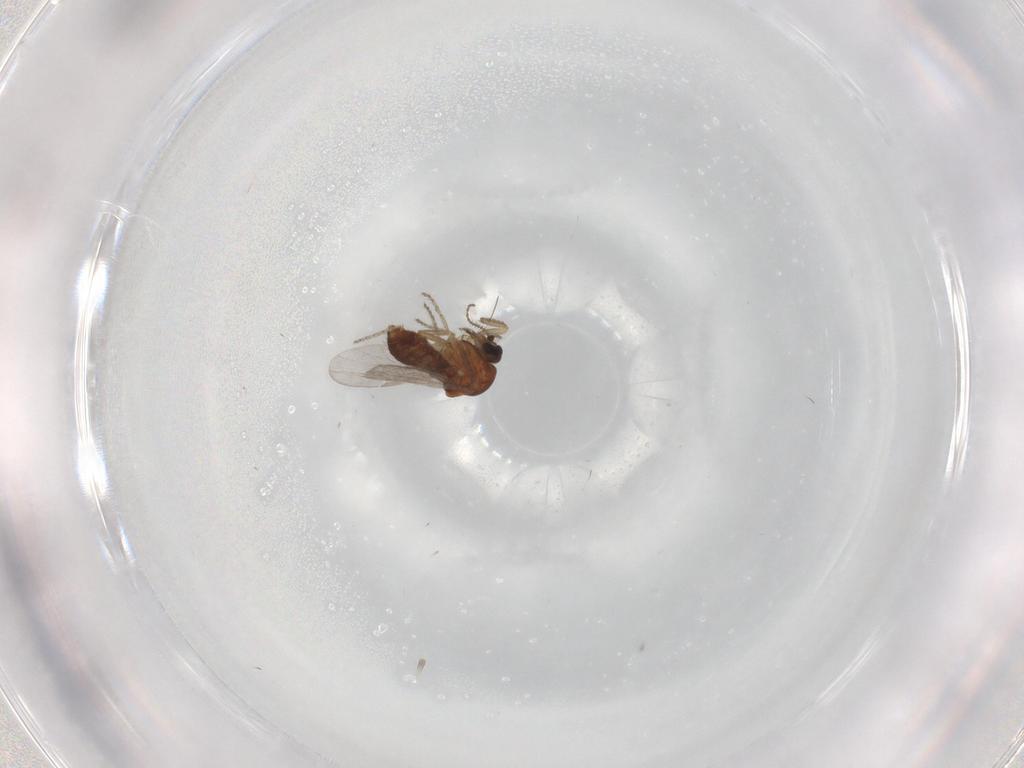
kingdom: Animalia
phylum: Arthropoda
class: Insecta
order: Diptera
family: Ceratopogonidae
